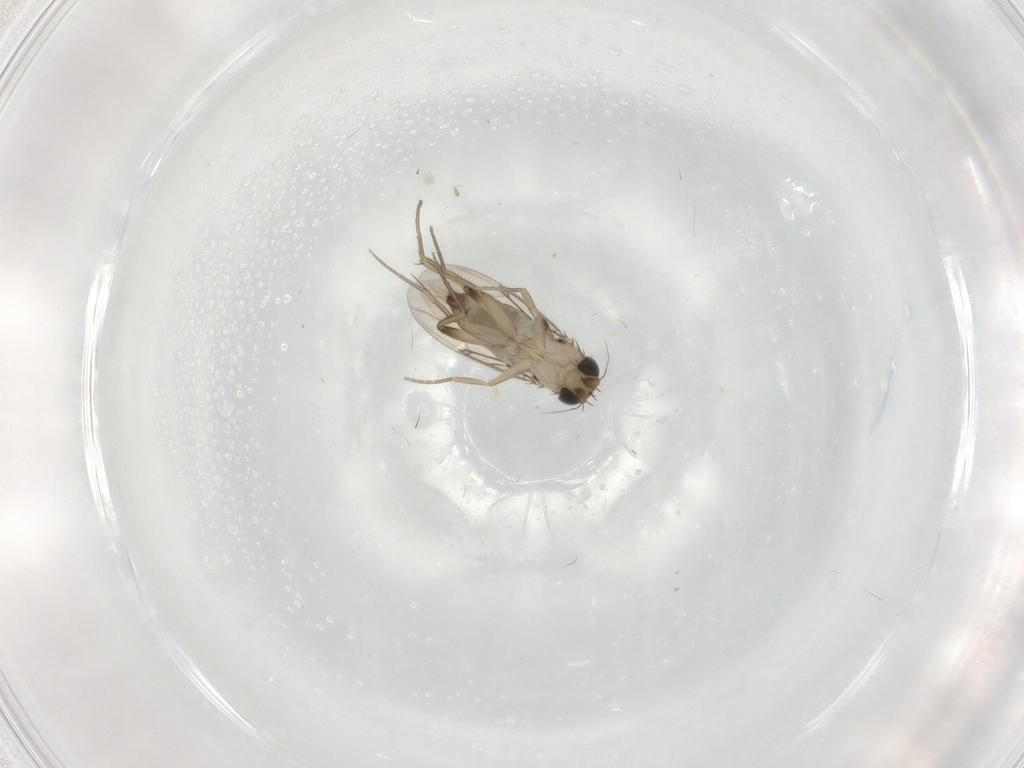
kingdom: Animalia
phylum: Arthropoda
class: Insecta
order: Diptera
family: Phoridae
